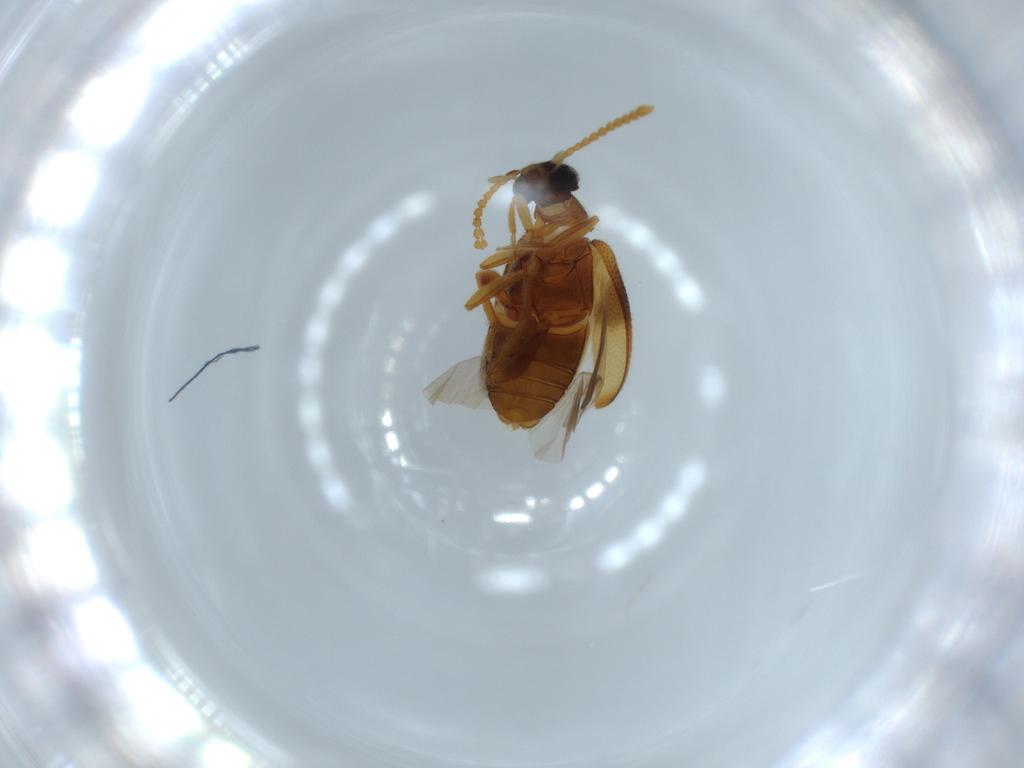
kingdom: Animalia
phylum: Arthropoda
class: Insecta
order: Coleoptera
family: Aderidae
